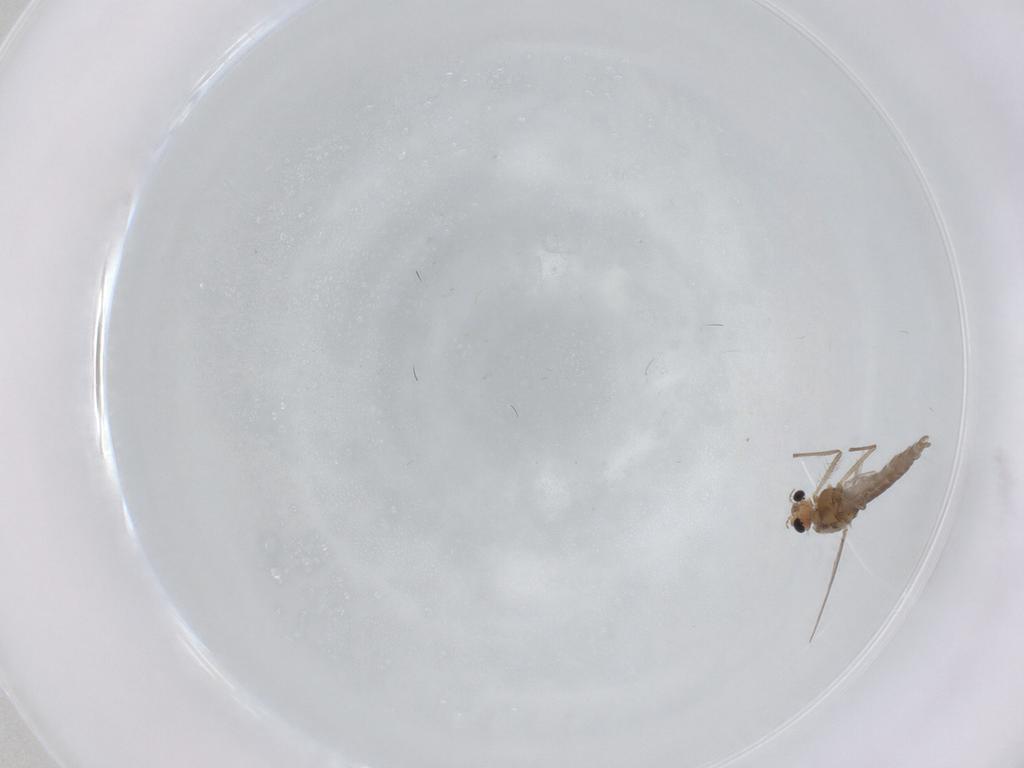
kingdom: Animalia
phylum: Arthropoda
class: Insecta
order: Diptera
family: Chironomidae
